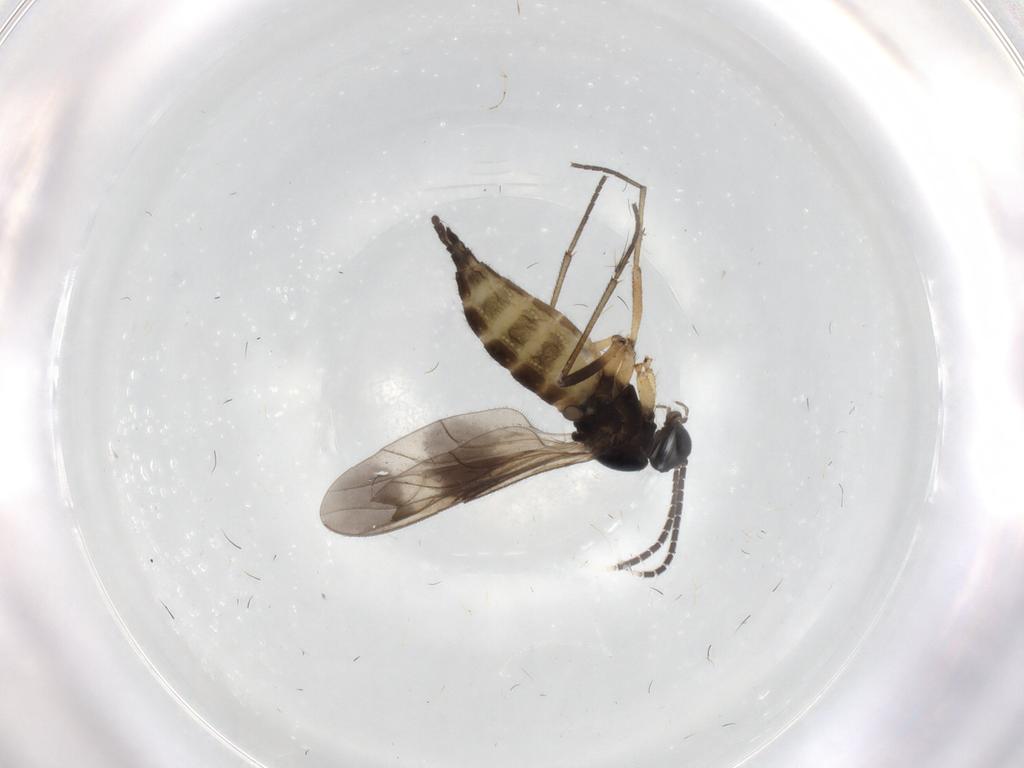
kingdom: Animalia
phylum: Arthropoda
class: Insecta
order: Diptera
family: Sciaridae
